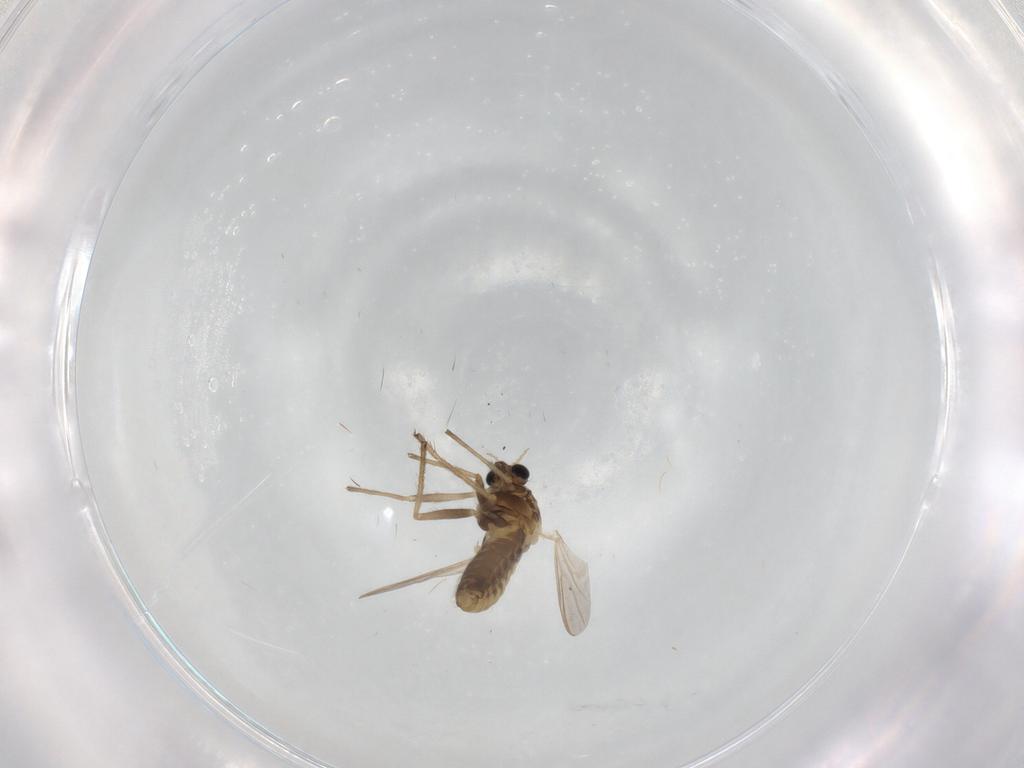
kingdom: Animalia
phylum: Arthropoda
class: Insecta
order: Diptera
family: Chironomidae
